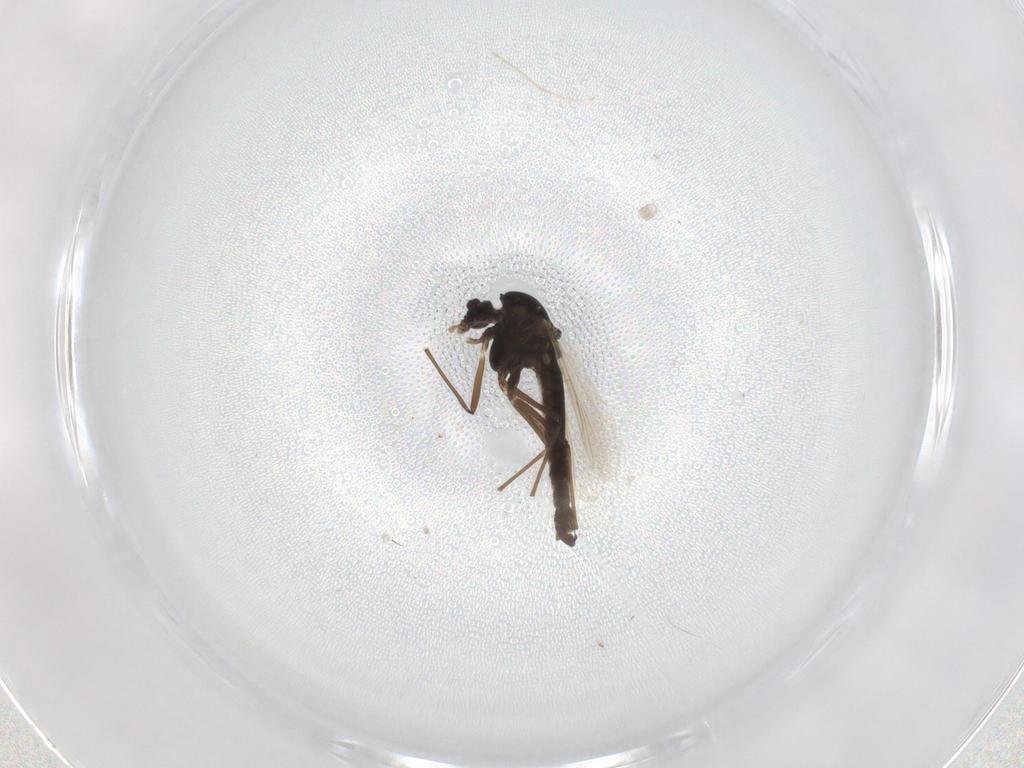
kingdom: Animalia
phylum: Arthropoda
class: Insecta
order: Diptera
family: Cecidomyiidae
